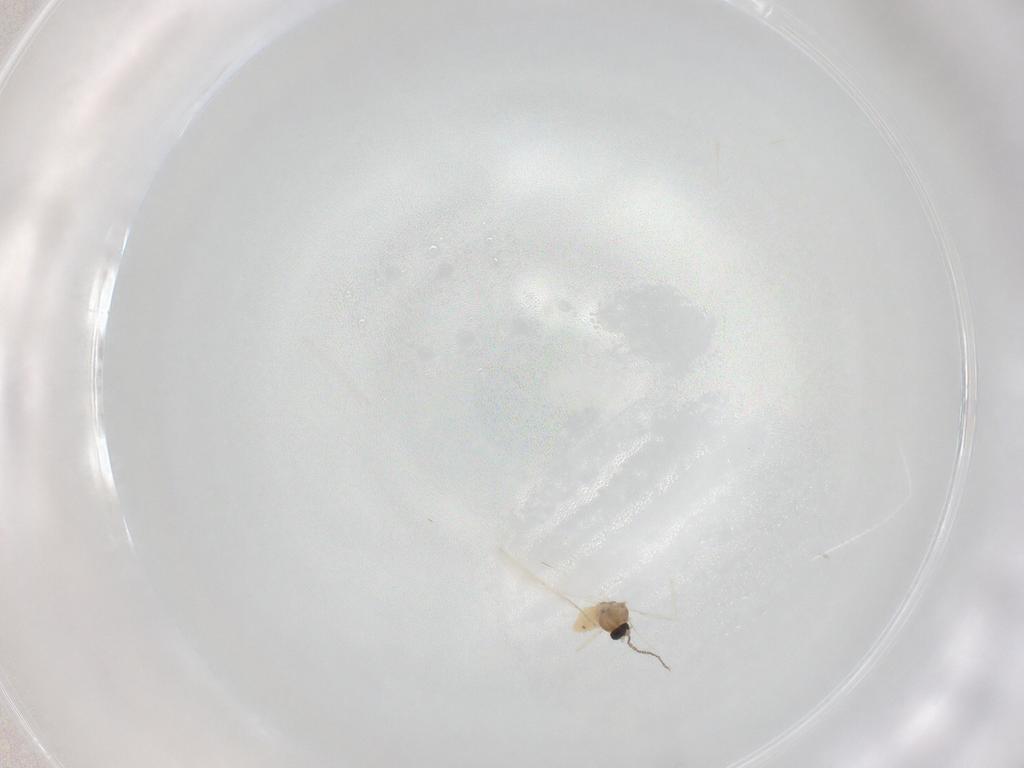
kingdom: Animalia
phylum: Arthropoda
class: Insecta
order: Diptera
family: Cecidomyiidae
